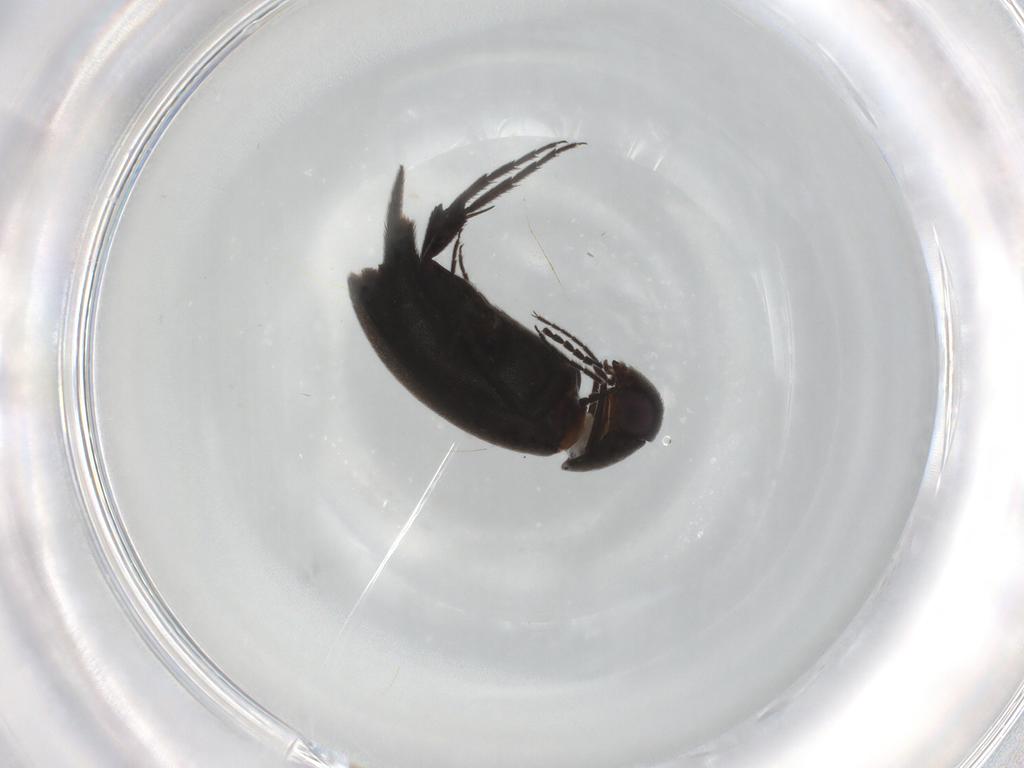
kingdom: Animalia
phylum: Arthropoda
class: Insecta
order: Coleoptera
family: Mordellidae
